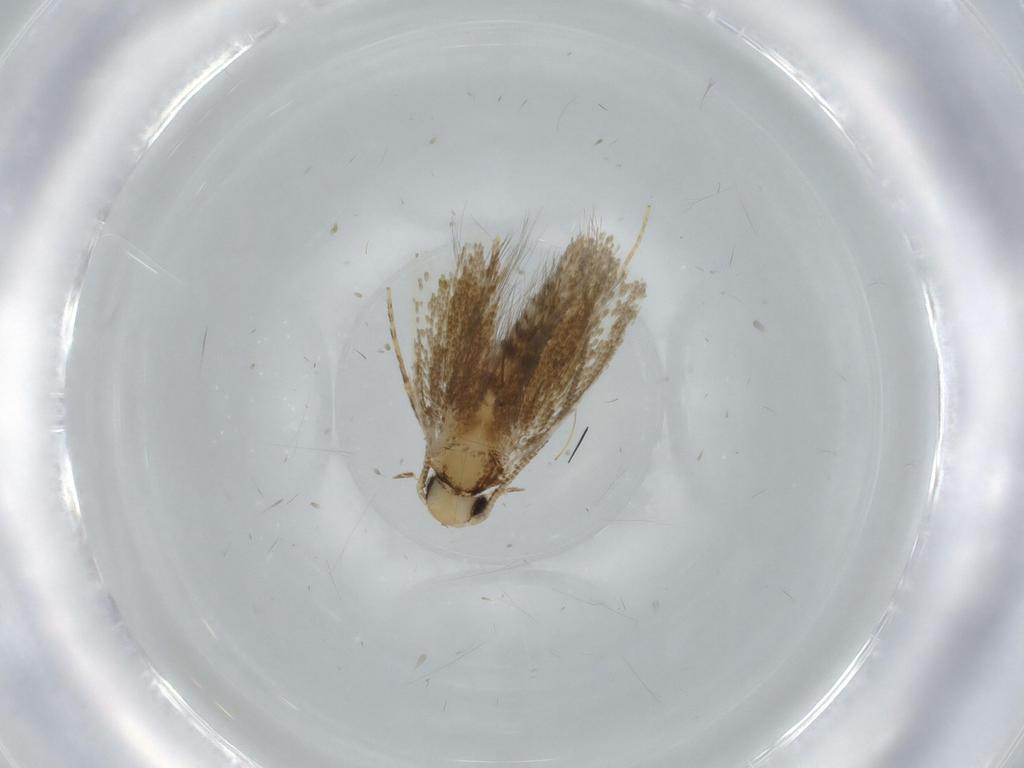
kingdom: Animalia
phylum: Arthropoda
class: Insecta
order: Lepidoptera
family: Tineidae
